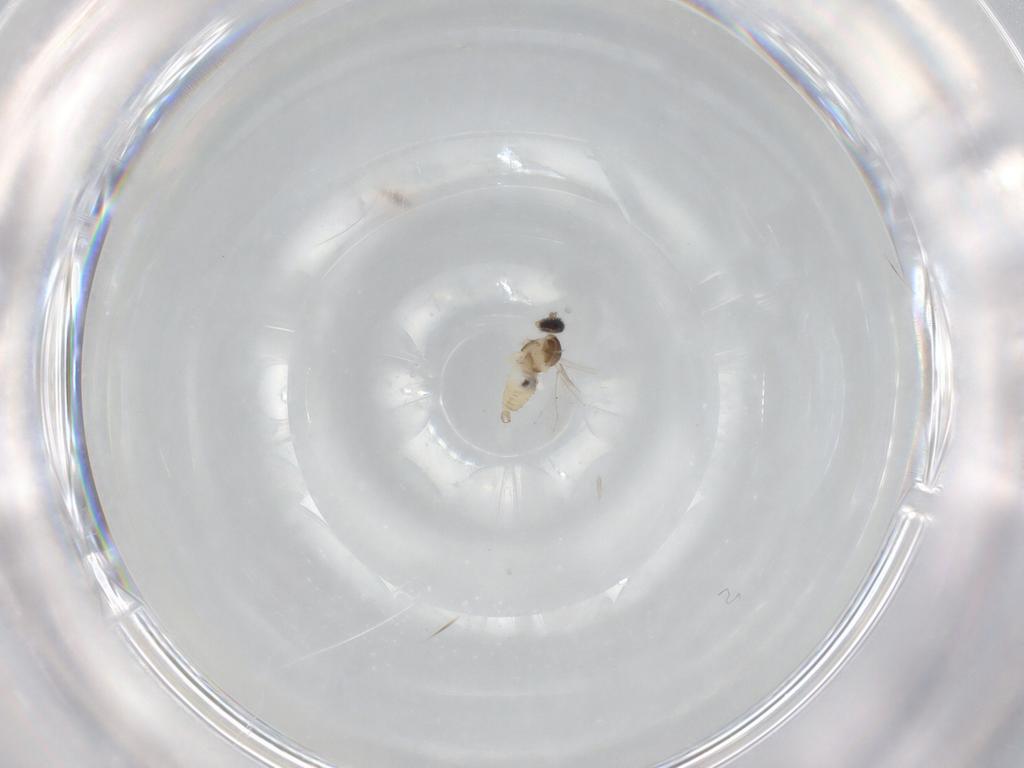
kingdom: Animalia
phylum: Arthropoda
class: Insecta
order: Diptera
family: Cecidomyiidae
